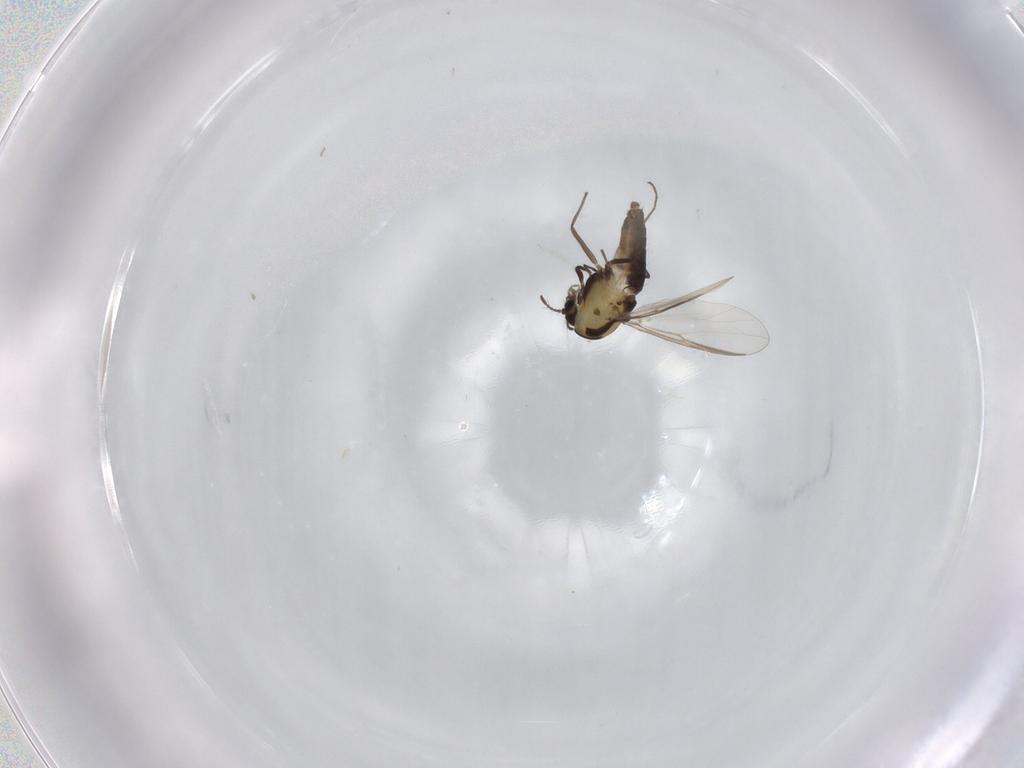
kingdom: Animalia
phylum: Arthropoda
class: Insecta
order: Diptera
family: Chironomidae
